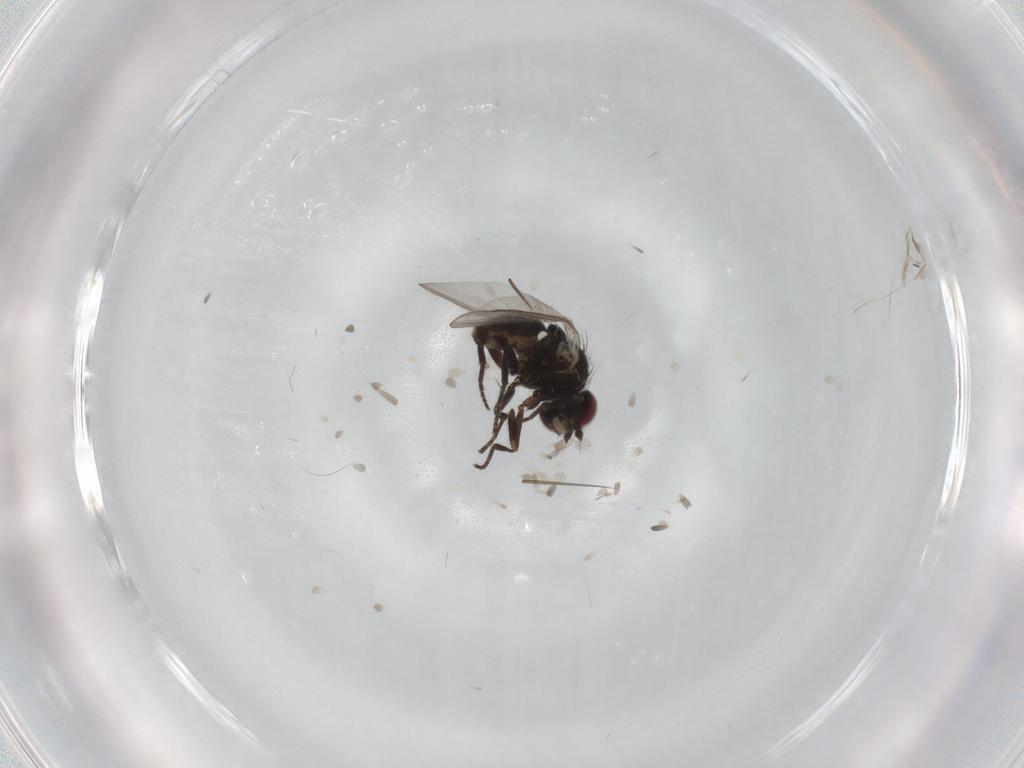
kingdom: Animalia
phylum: Arthropoda
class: Insecta
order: Diptera
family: Agromyzidae
